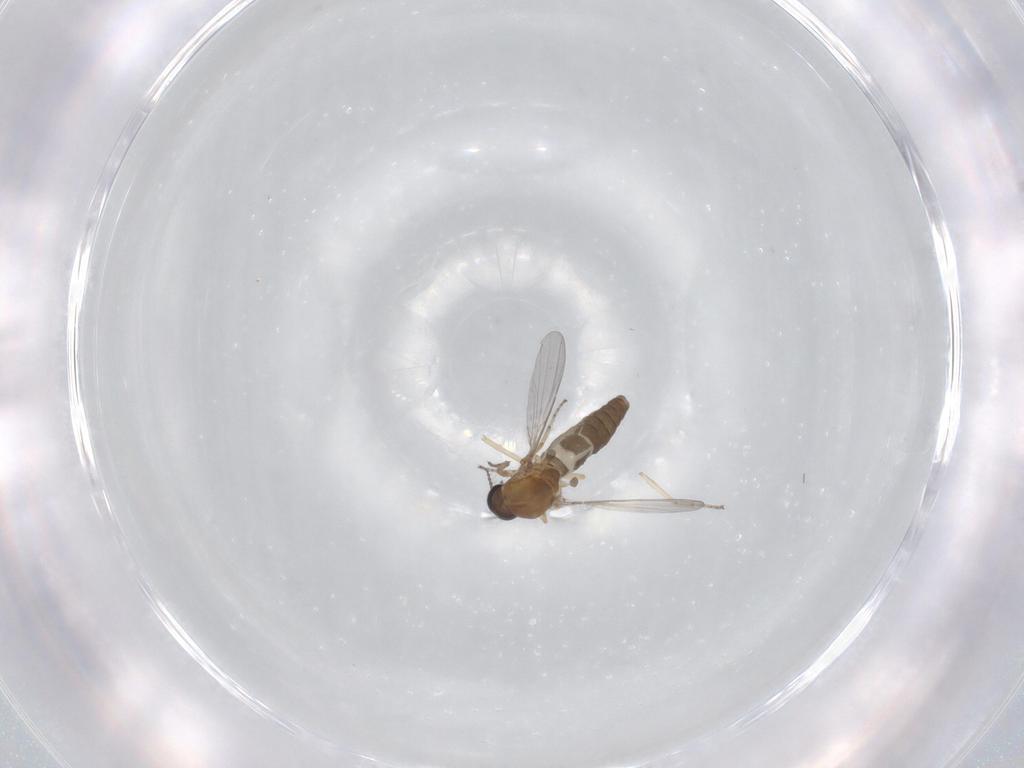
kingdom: Animalia
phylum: Arthropoda
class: Insecta
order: Diptera
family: Ceratopogonidae
